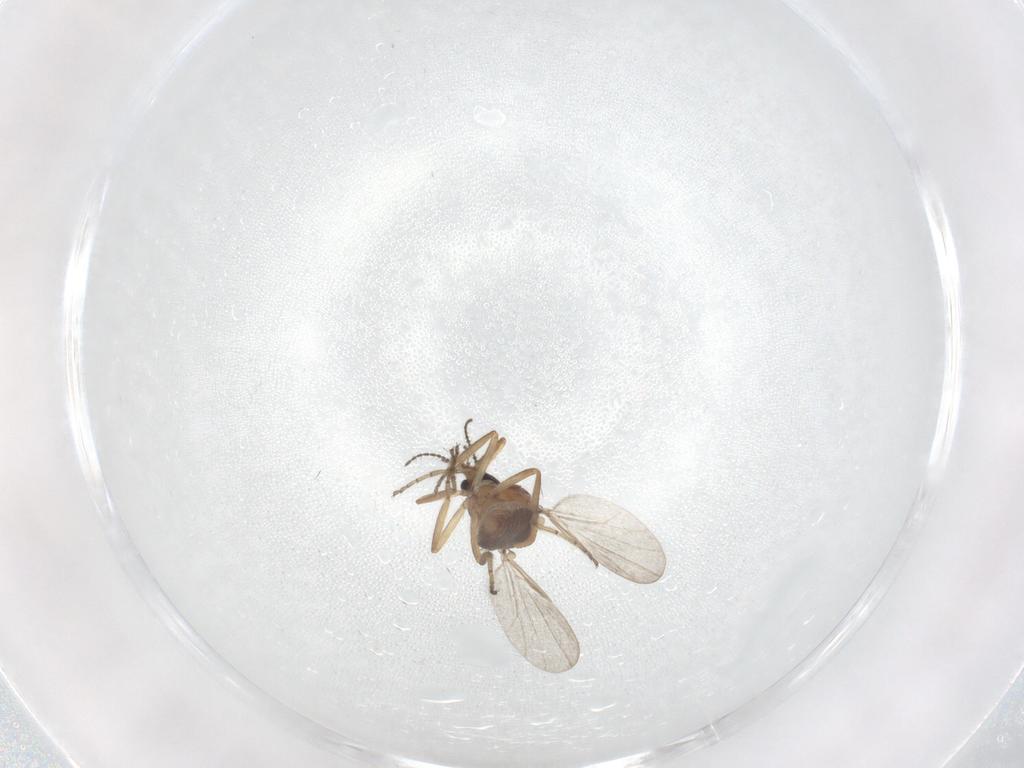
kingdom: Animalia
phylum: Arthropoda
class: Insecta
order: Diptera
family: Ceratopogonidae
